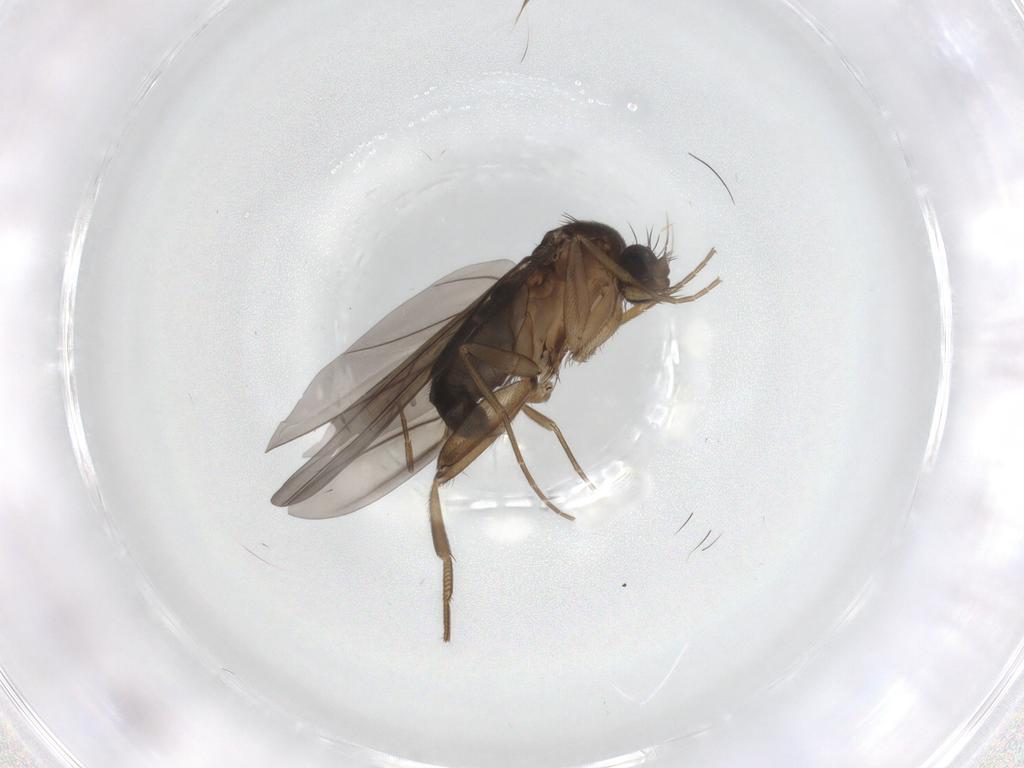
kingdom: Animalia
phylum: Arthropoda
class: Insecta
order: Diptera
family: Phoridae
